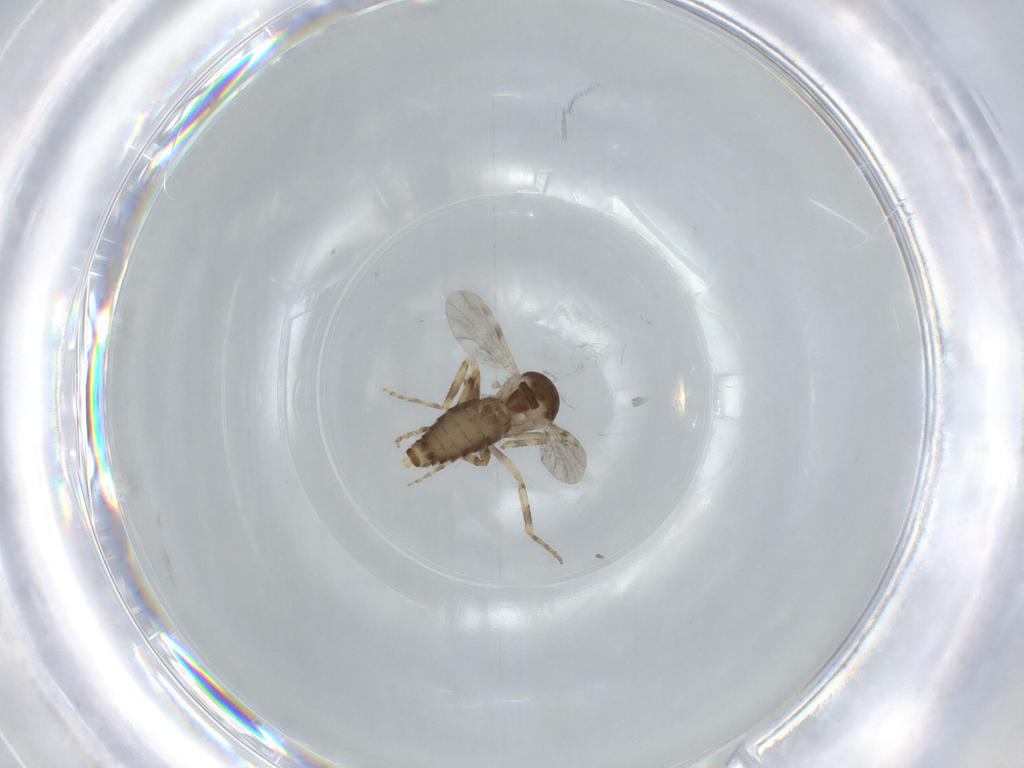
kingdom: Animalia
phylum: Arthropoda
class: Insecta
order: Diptera
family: Ceratopogonidae
